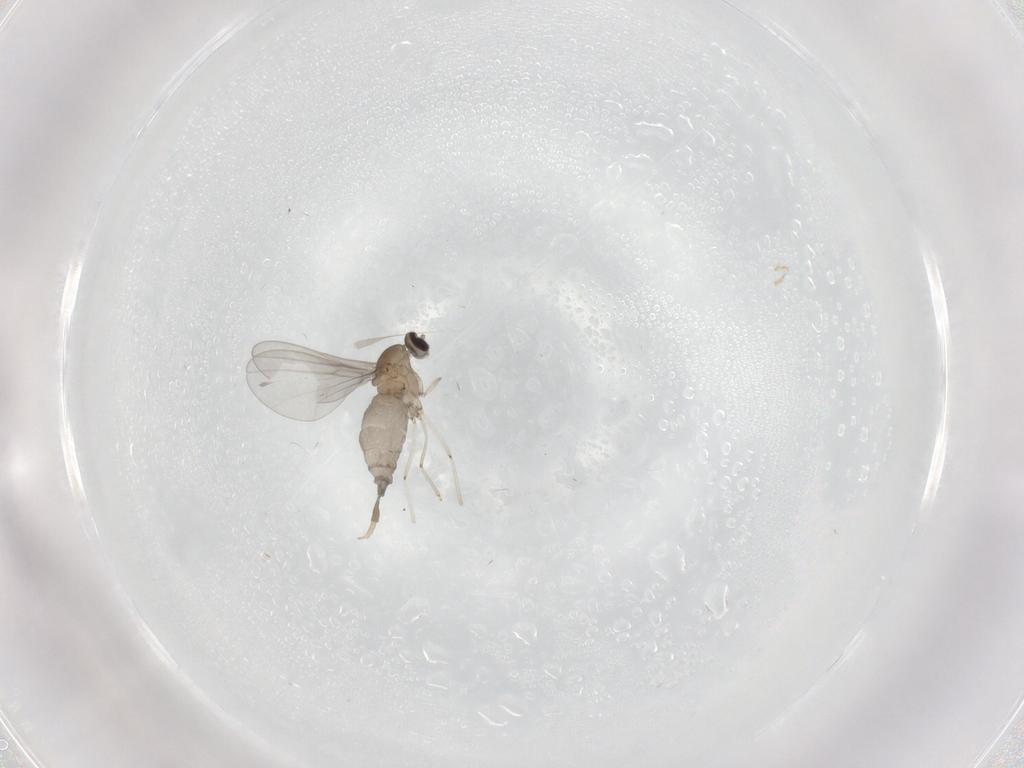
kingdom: Animalia
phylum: Arthropoda
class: Insecta
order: Diptera
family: Cecidomyiidae
